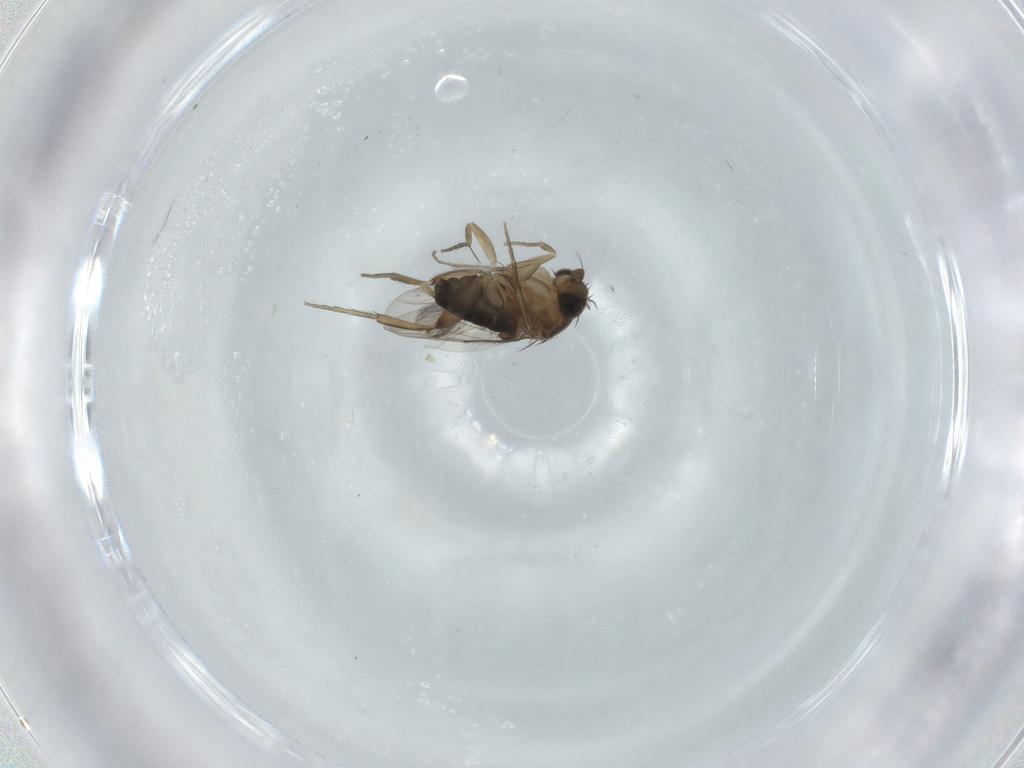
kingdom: Animalia
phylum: Arthropoda
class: Insecta
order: Diptera
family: Phoridae
